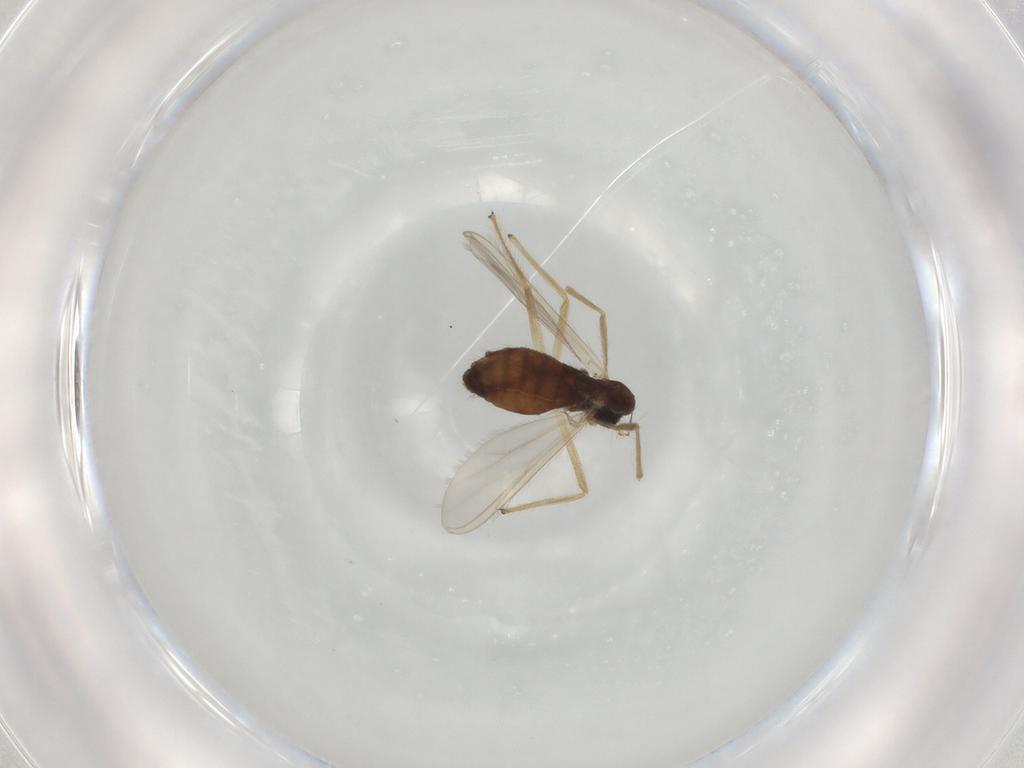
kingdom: Animalia
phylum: Arthropoda
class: Insecta
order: Diptera
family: Chironomidae
